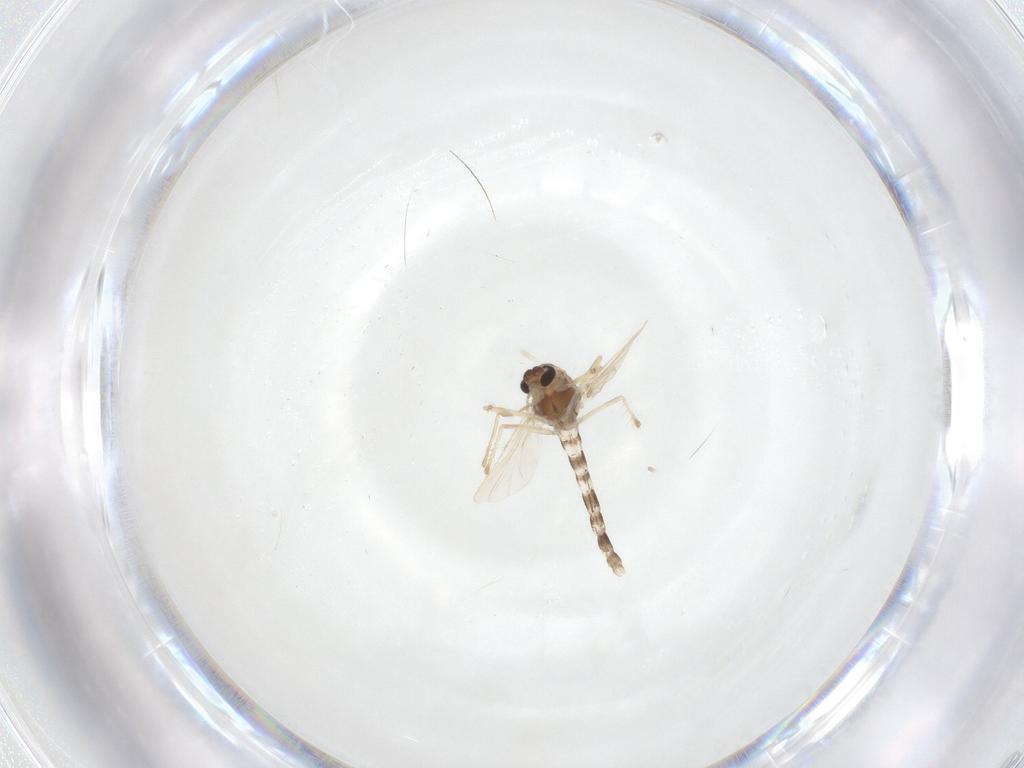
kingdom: Animalia
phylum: Arthropoda
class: Insecta
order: Diptera
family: Chironomidae
